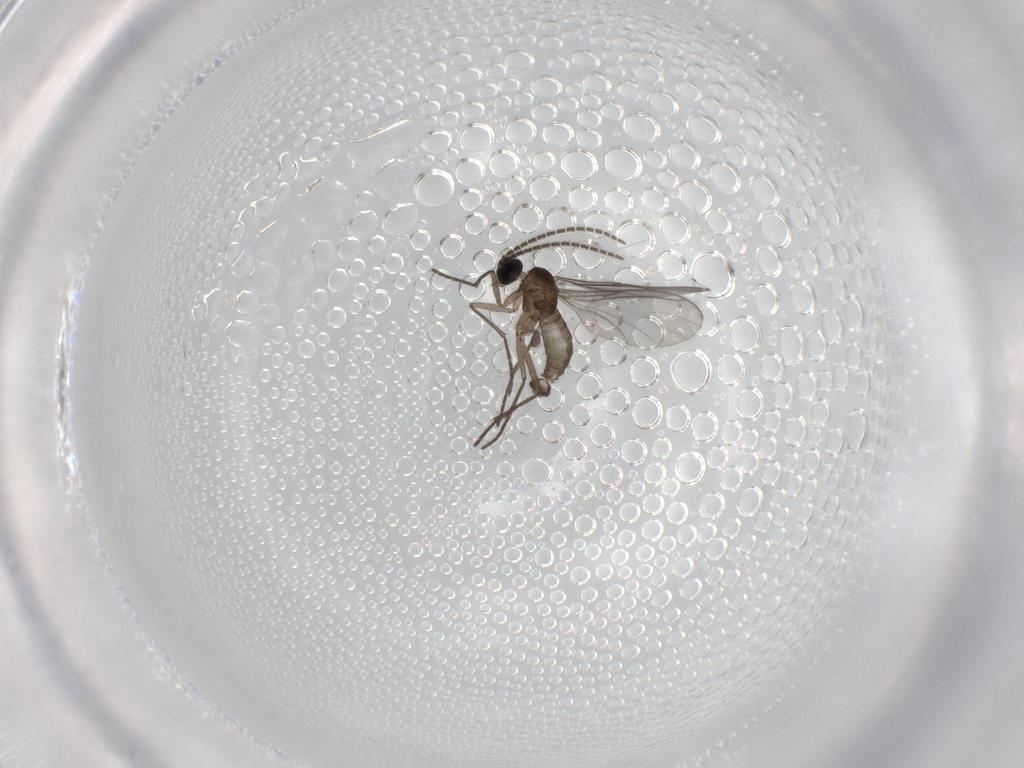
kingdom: Animalia
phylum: Arthropoda
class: Insecta
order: Diptera
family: Sciaridae
